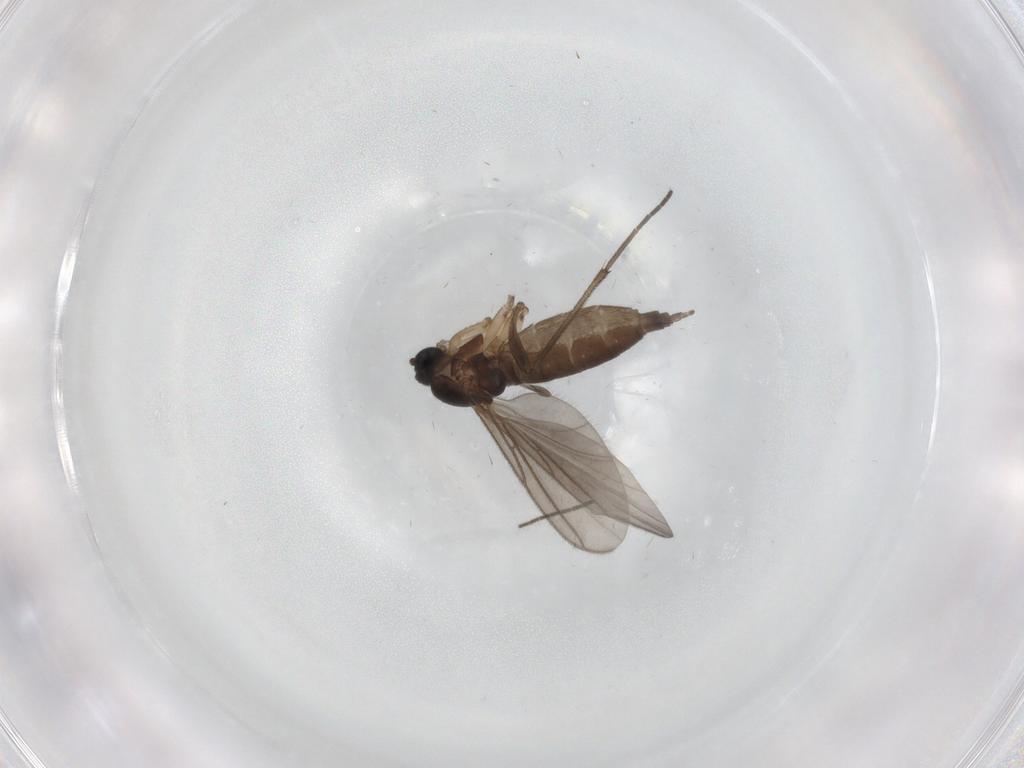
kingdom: Animalia
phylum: Arthropoda
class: Insecta
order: Diptera
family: Sciaridae
